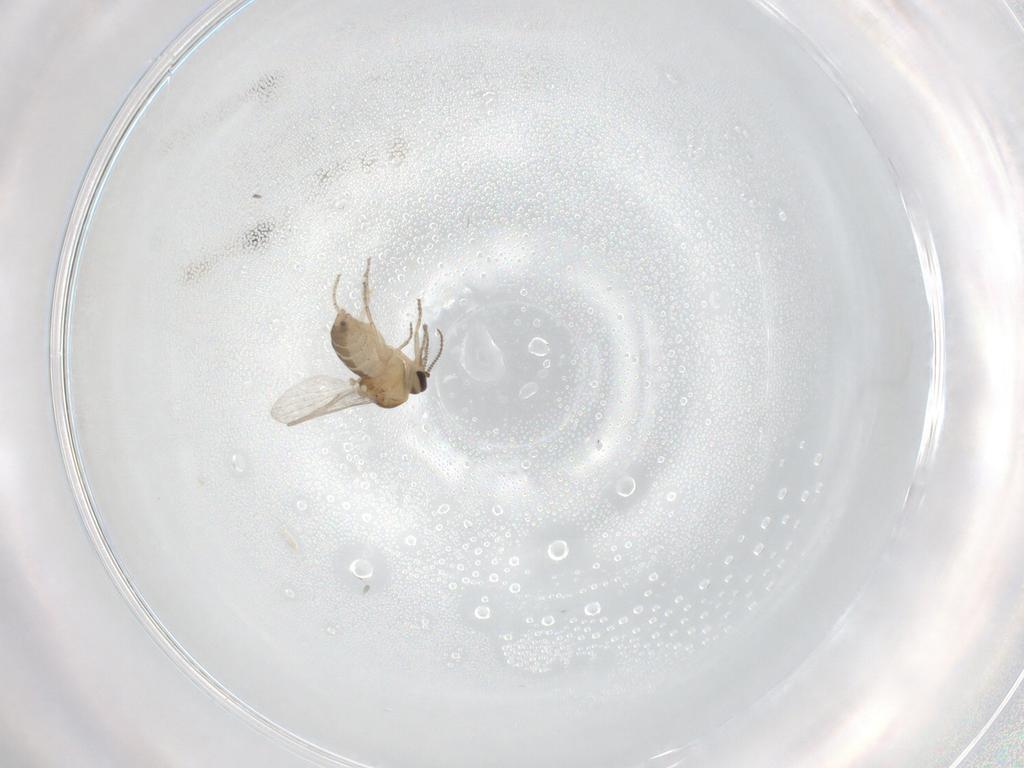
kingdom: Animalia
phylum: Arthropoda
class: Insecta
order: Diptera
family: Ceratopogonidae
